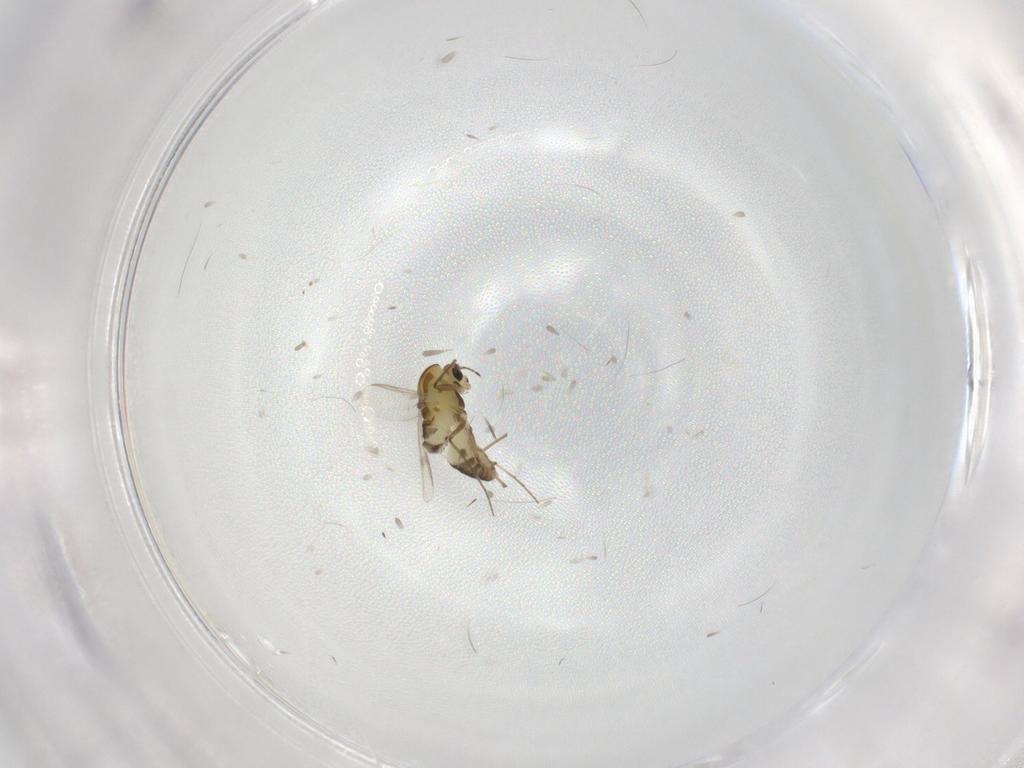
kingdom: Animalia
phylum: Arthropoda
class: Insecta
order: Diptera
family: Chironomidae
